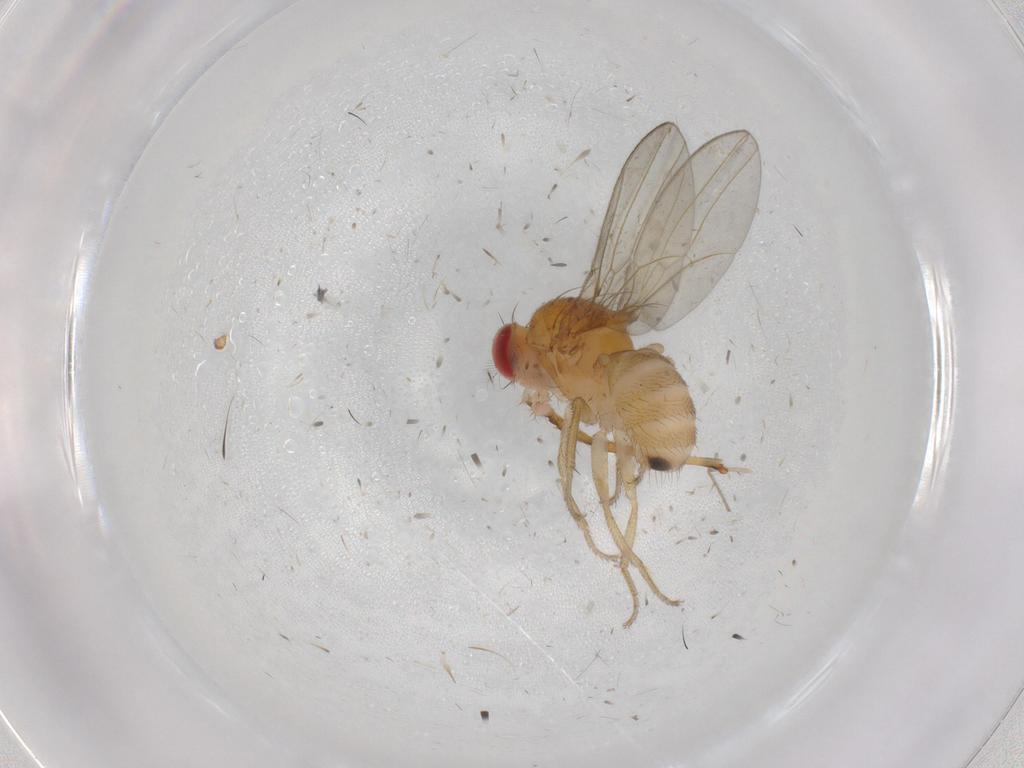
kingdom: Animalia
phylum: Arthropoda
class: Insecta
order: Diptera
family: Drosophilidae
